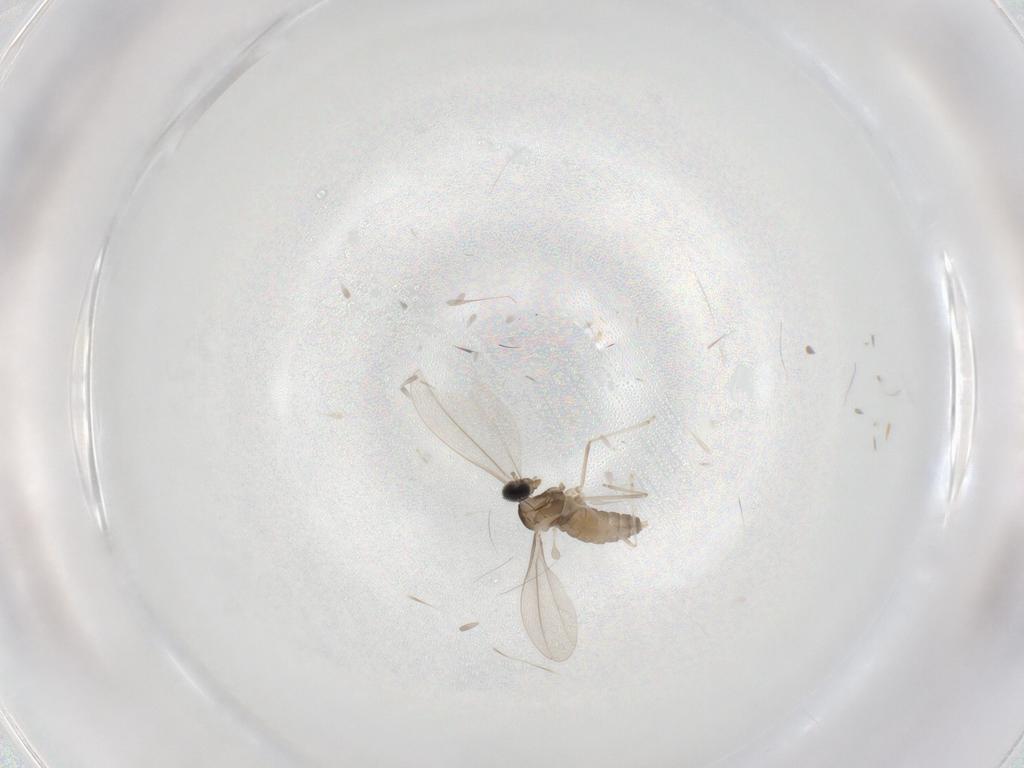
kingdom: Animalia
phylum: Arthropoda
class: Insecta
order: Diptera
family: Cecidomyiidae
